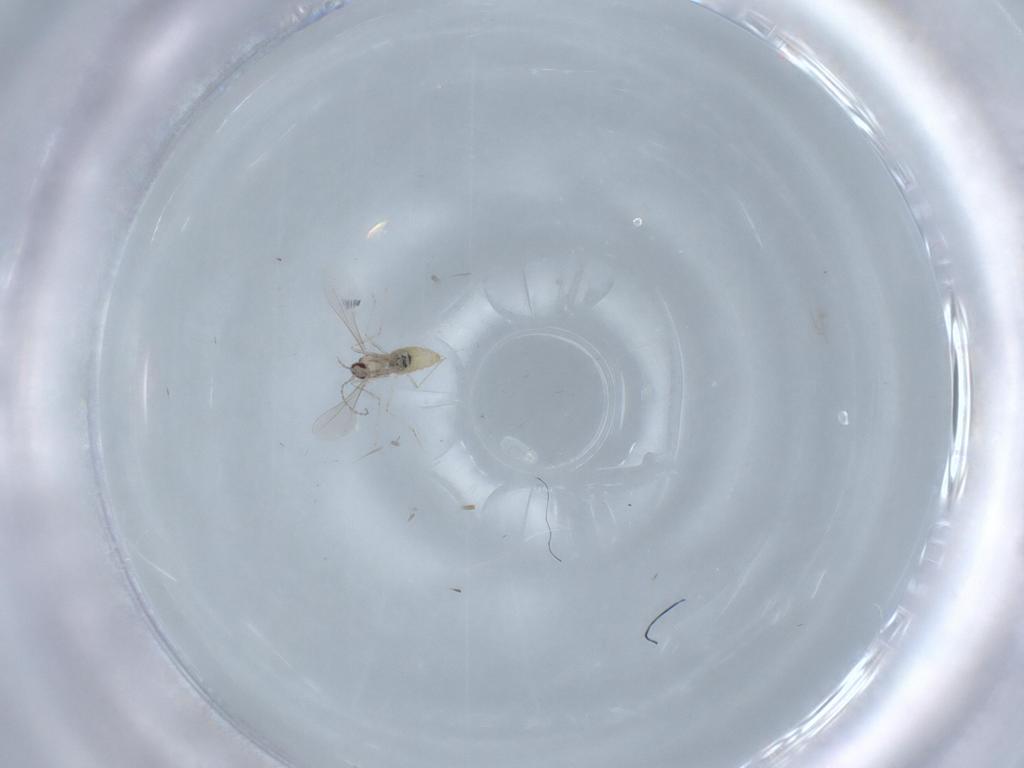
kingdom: Animalia
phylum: Arthropoda
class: Insecta
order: Diptera
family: Cecidomyiidae
